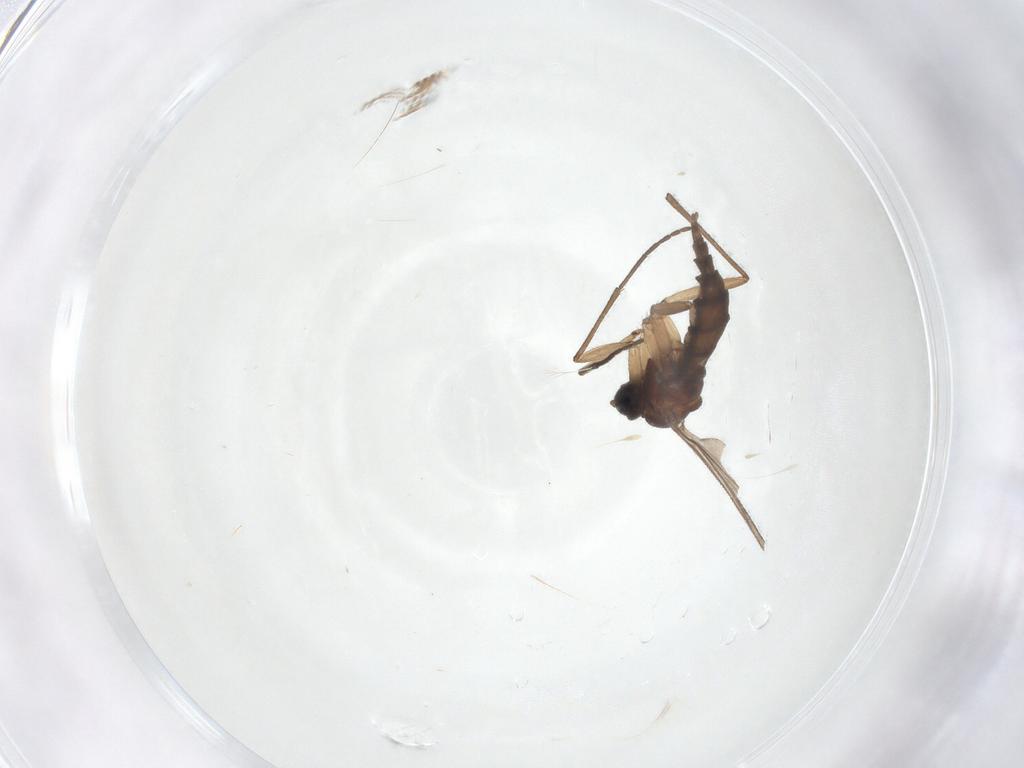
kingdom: Animalia
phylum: Arthropoda
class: Insecta
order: Diptera
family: Sciaridae
